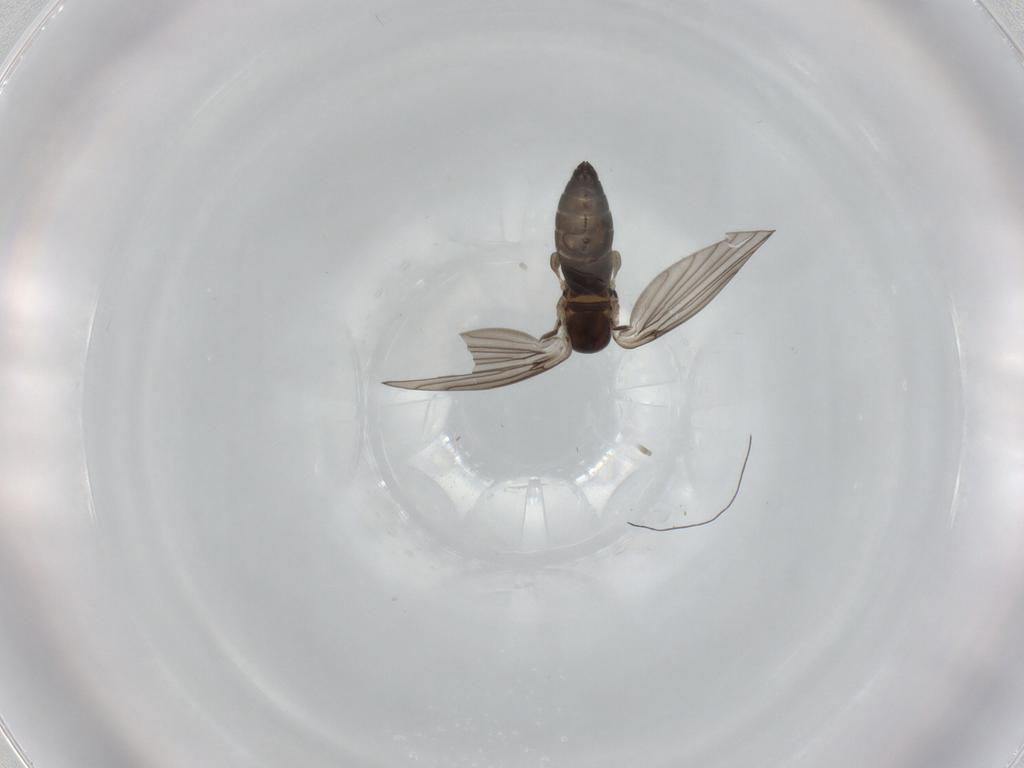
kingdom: Animalia
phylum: Arthropoda
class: Insecta
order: Diptera
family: Heleomyzidae
